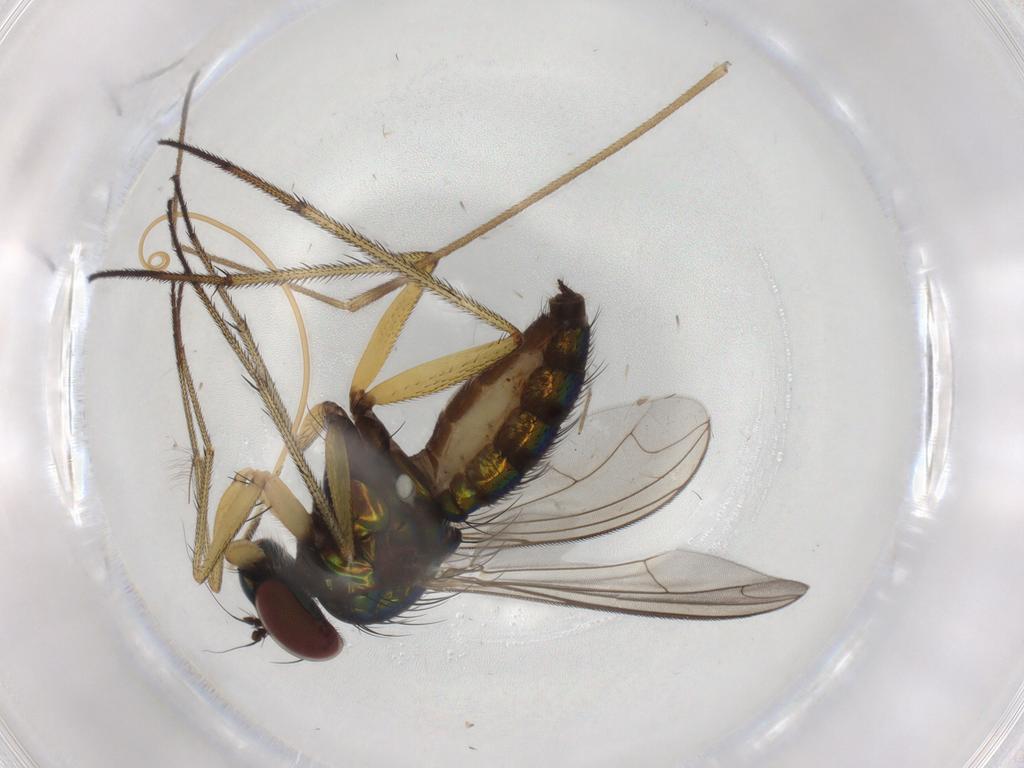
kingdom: Animalia
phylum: Arthropoda
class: Insecta
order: Diptera
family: Dolichopodidae
